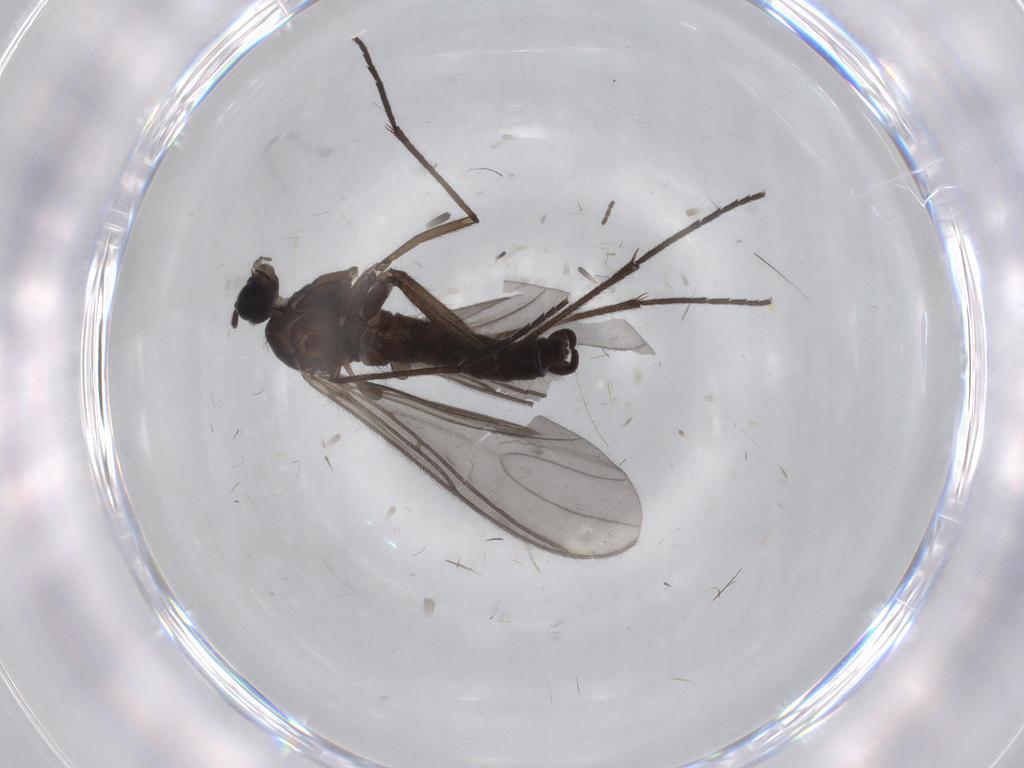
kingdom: Animalia
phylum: Arthropoda
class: Insecta
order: Diptera
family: Sciaridae
